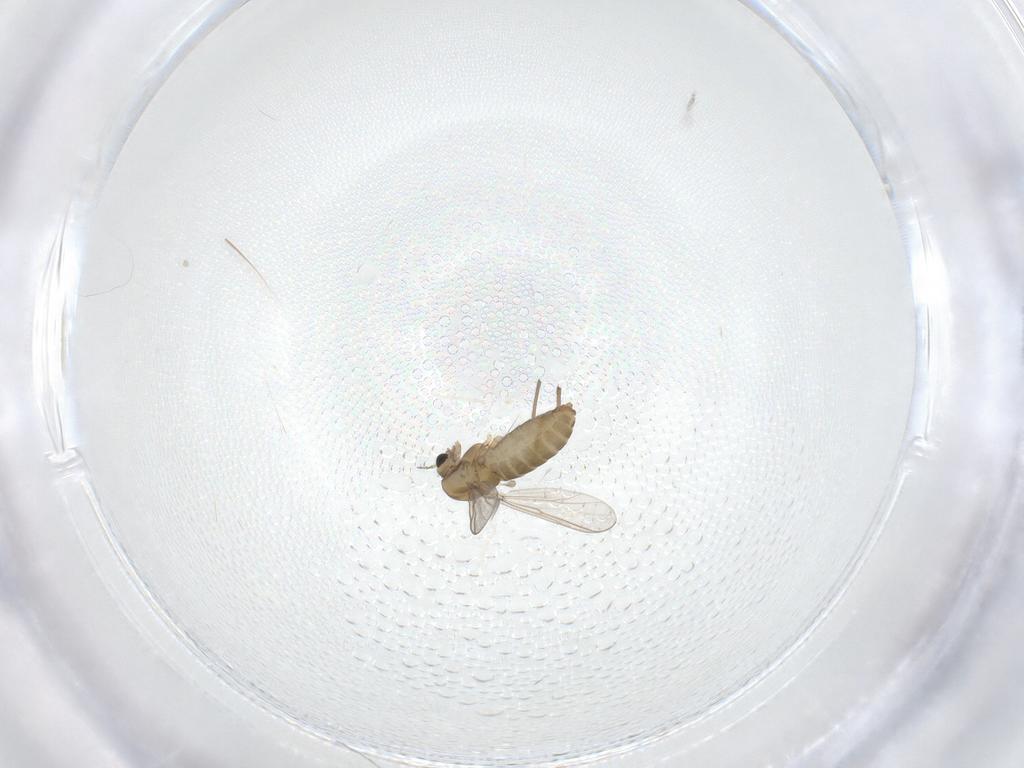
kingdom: Animalia
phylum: Arthropoda
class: Insecta
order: Diptera
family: Chironomidae
